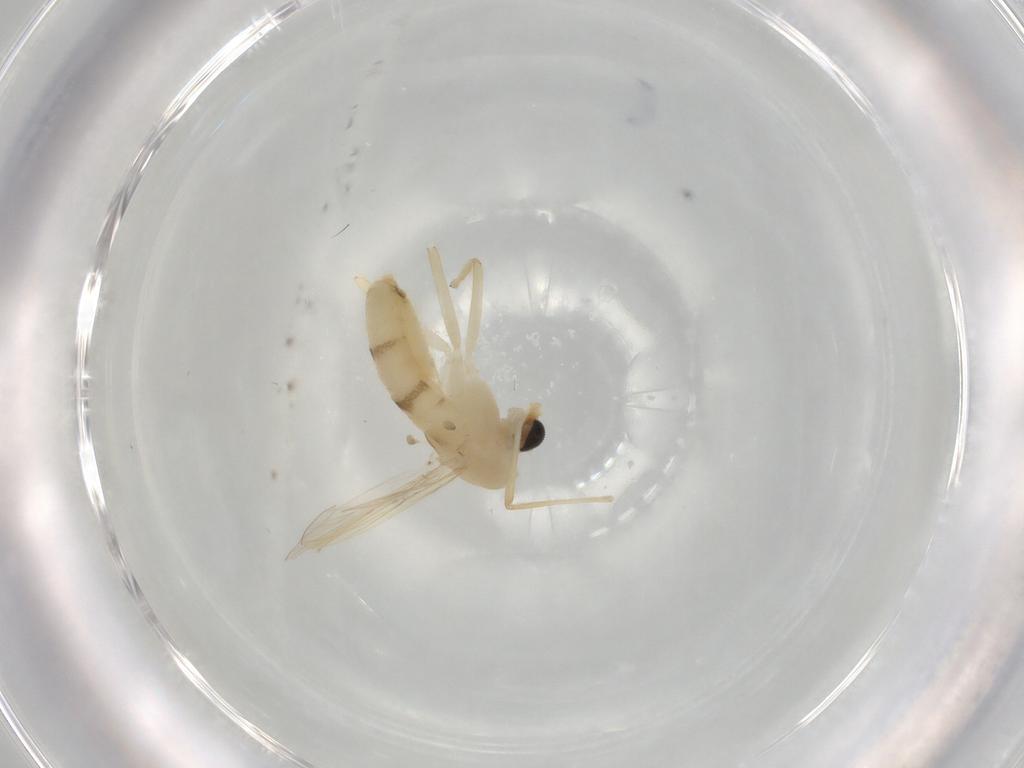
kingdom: Animalia
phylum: Arthropoda
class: Insecta
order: Diptera
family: Chironomidae
